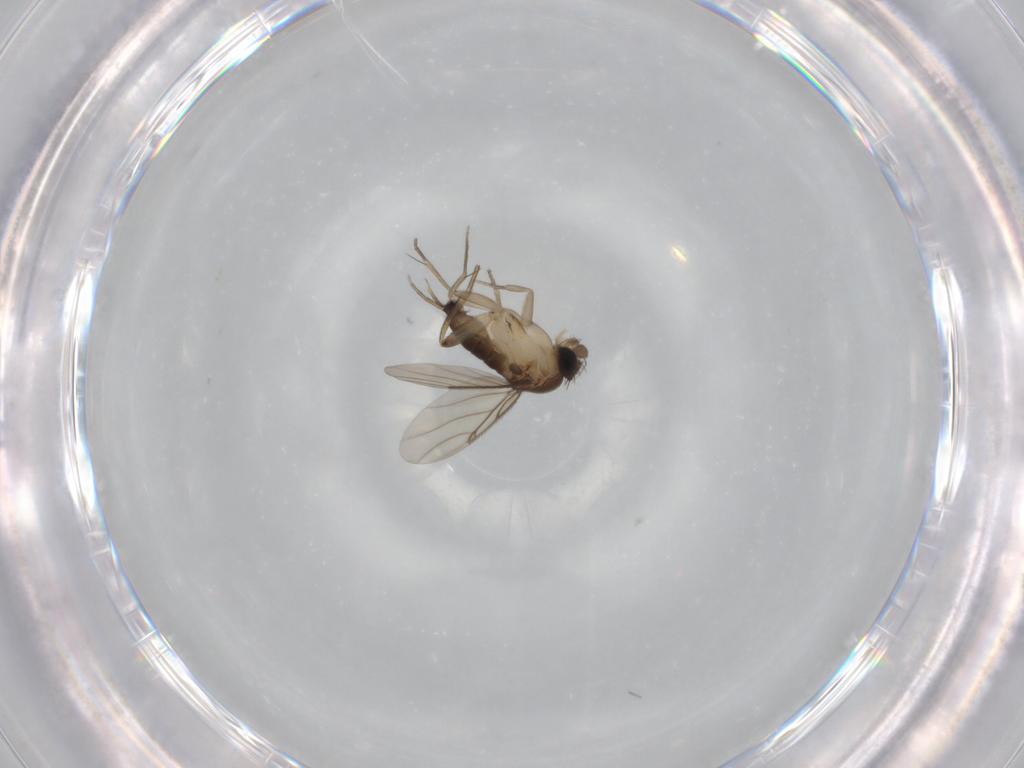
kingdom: Animalia
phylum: Arthropoda
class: Insecta
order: Diptera
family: Phoridae
